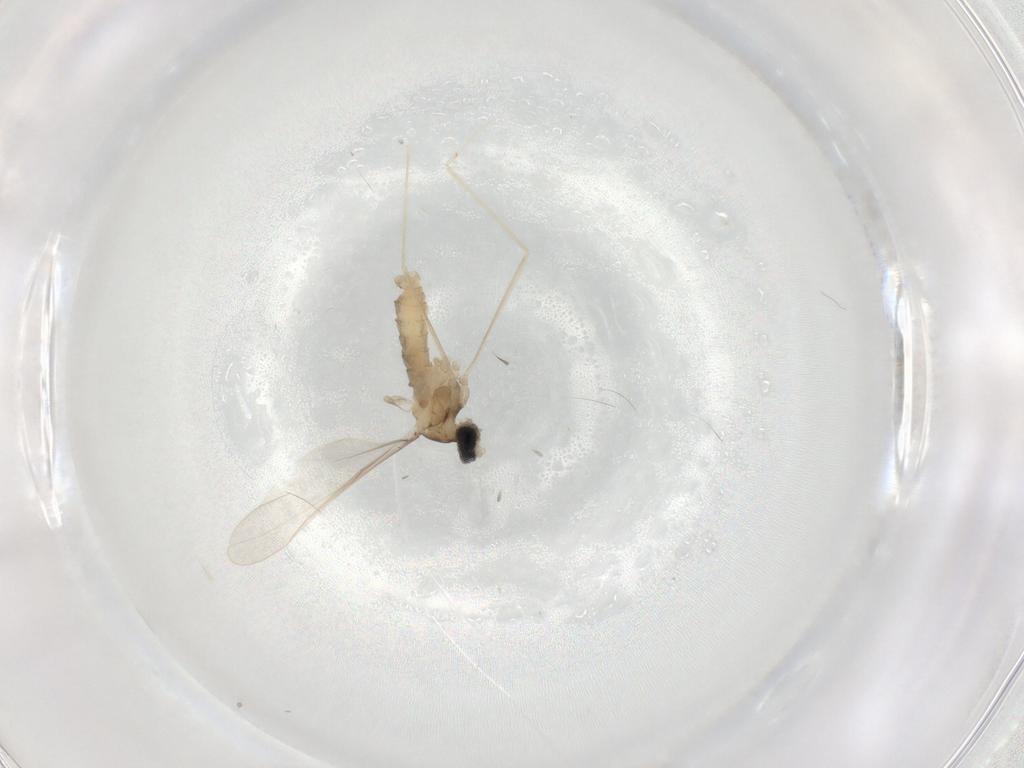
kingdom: Animalia
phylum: Arthropoda
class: Insecta
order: Diptera
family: Cecidomyiidae
